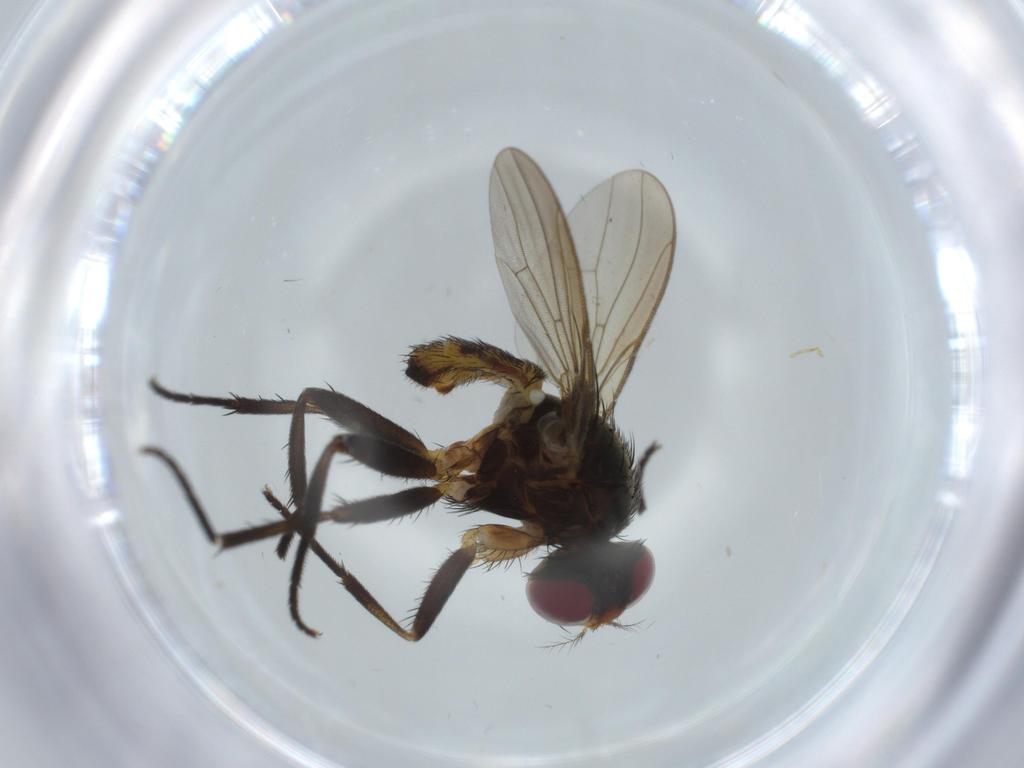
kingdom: Animalia
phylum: Arthropoda
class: Insecta
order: Diptera
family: Anthomyiidae
